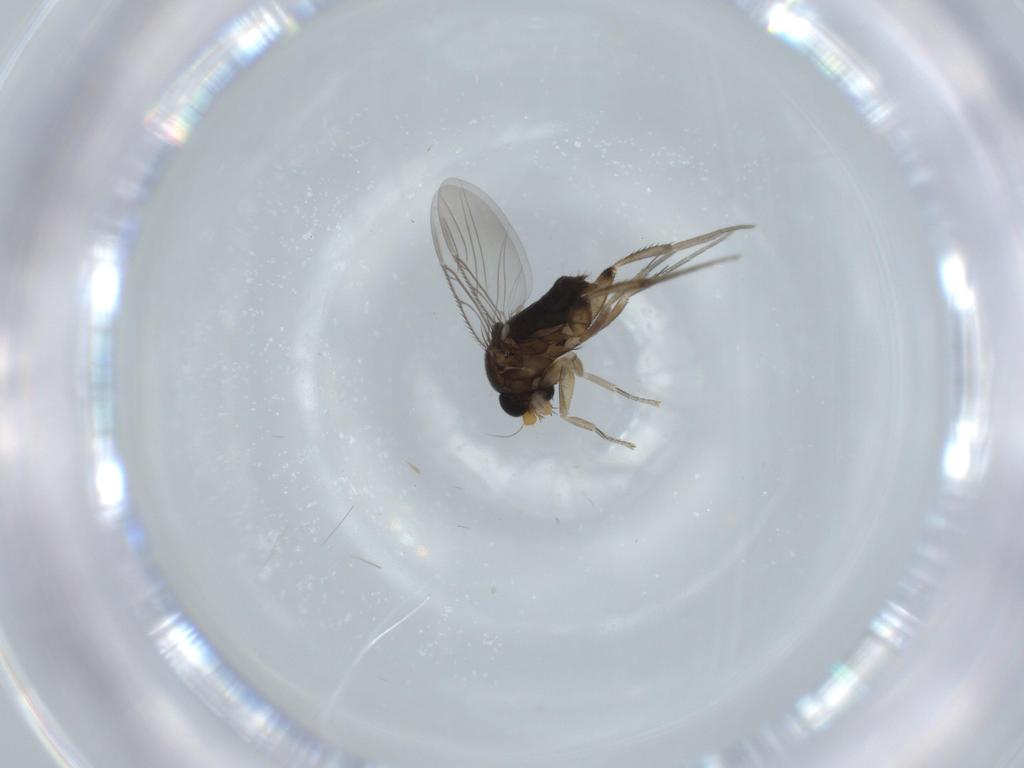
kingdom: Animalia
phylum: Arthropoda
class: Insecta
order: Diptera
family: Phoridae
